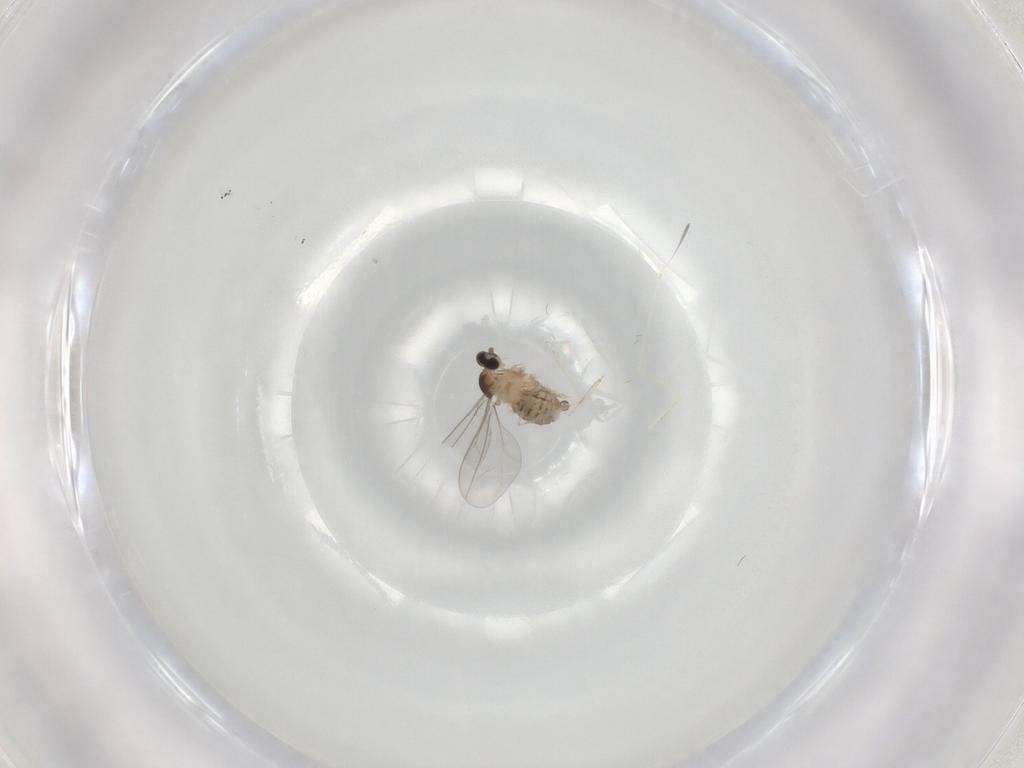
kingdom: Animalia
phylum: Arthropoda
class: Insecta
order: Diptera
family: Cecidomyiidae
